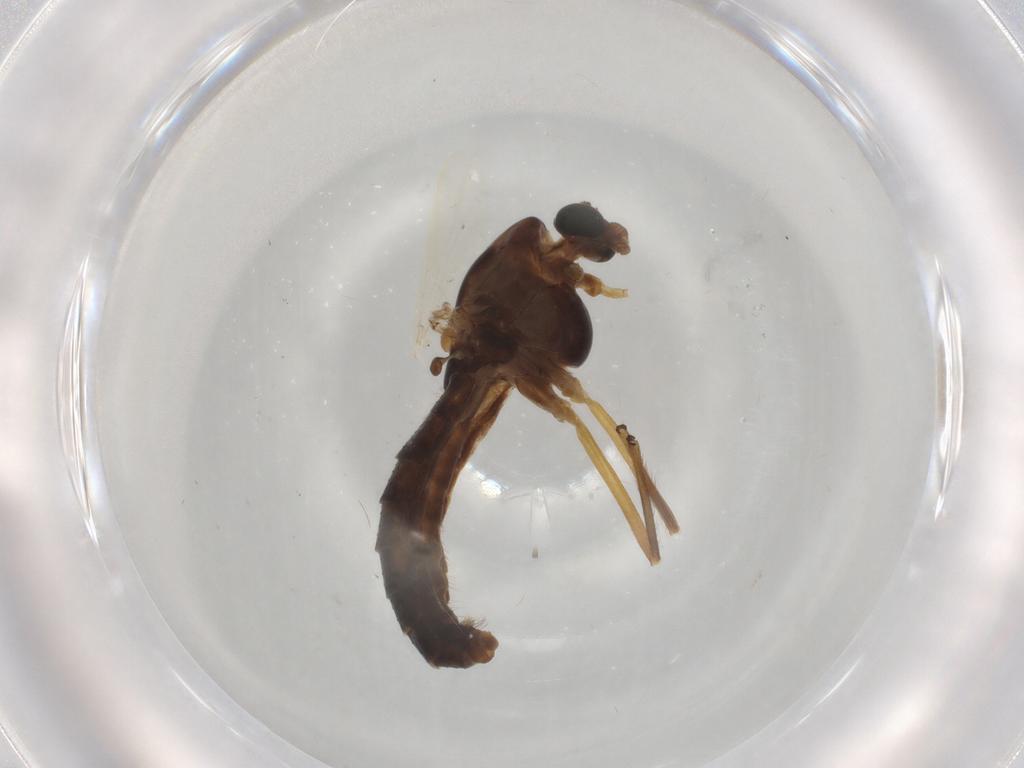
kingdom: Animalia
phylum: Arthropoda
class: Insecta
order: Diptera
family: Cecidomyiidae
